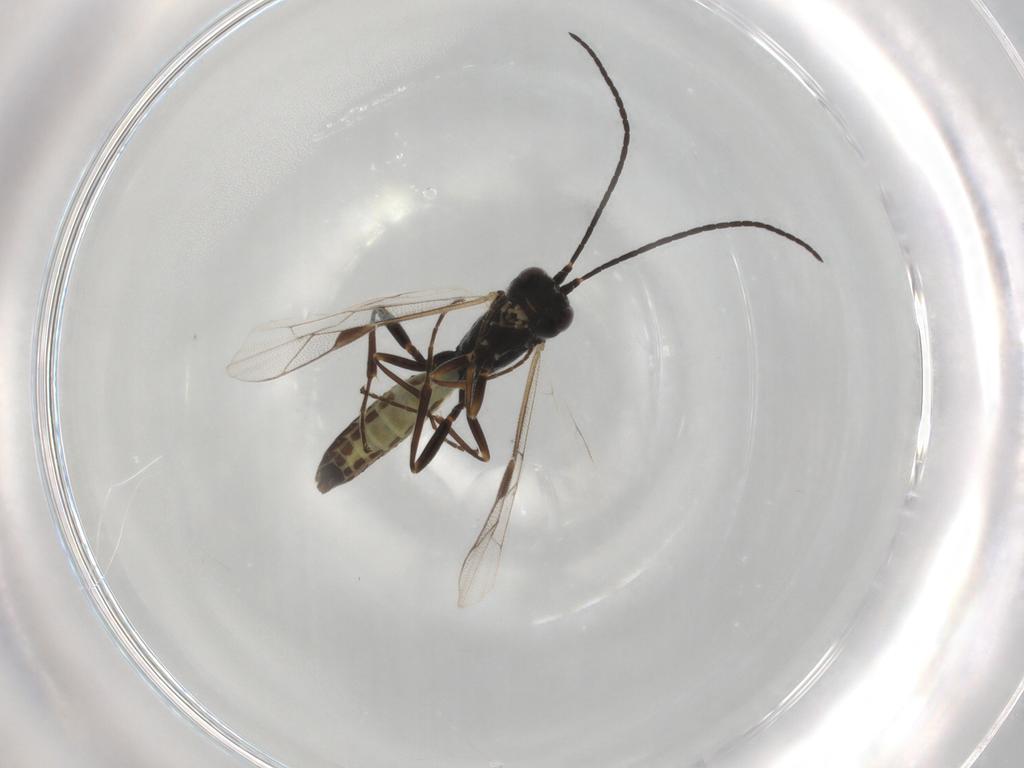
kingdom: Animalia
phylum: Arthropoda
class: Insecta
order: Hymenoptera
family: Ichneumonidae
